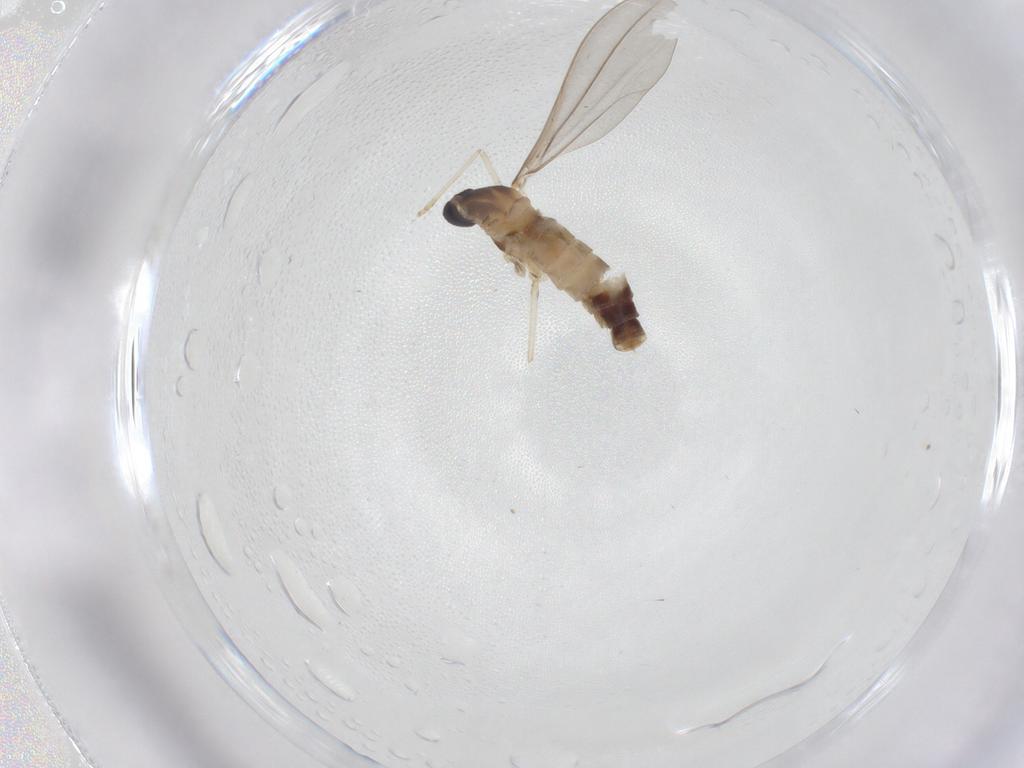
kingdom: Animalia
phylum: Arthropoda
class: Insecta
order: Diptera
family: Cecidomyiidae
